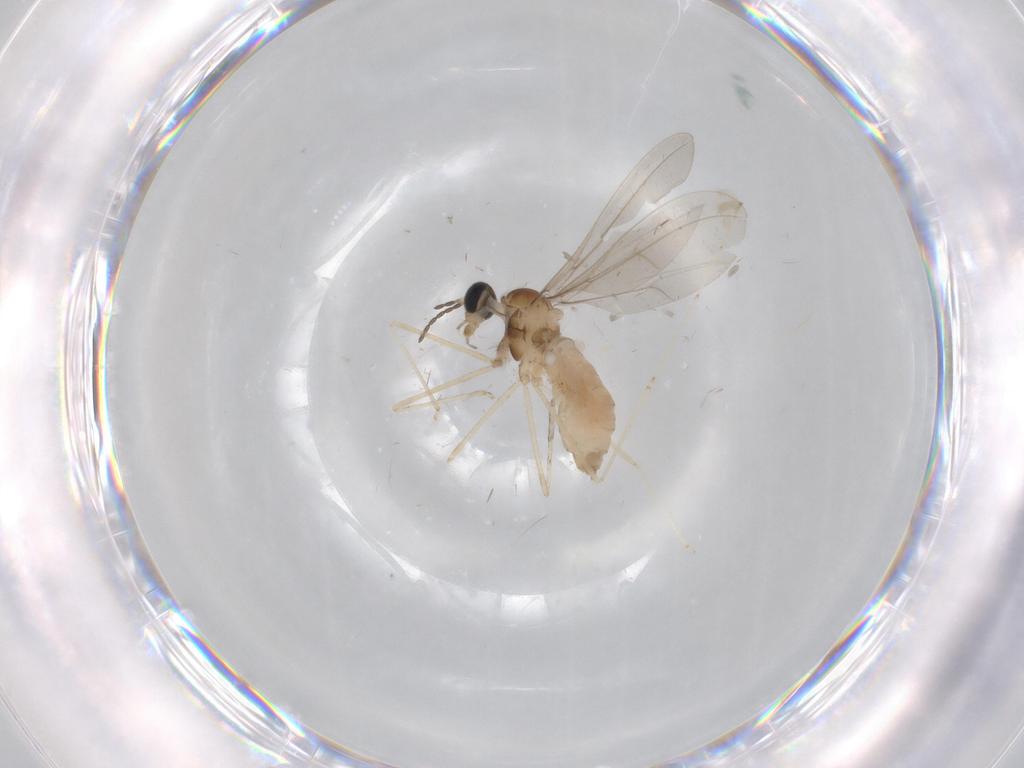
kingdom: Animalia
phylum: Arthropoda
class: Insecta
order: Diptera
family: Cecidomyiidae
